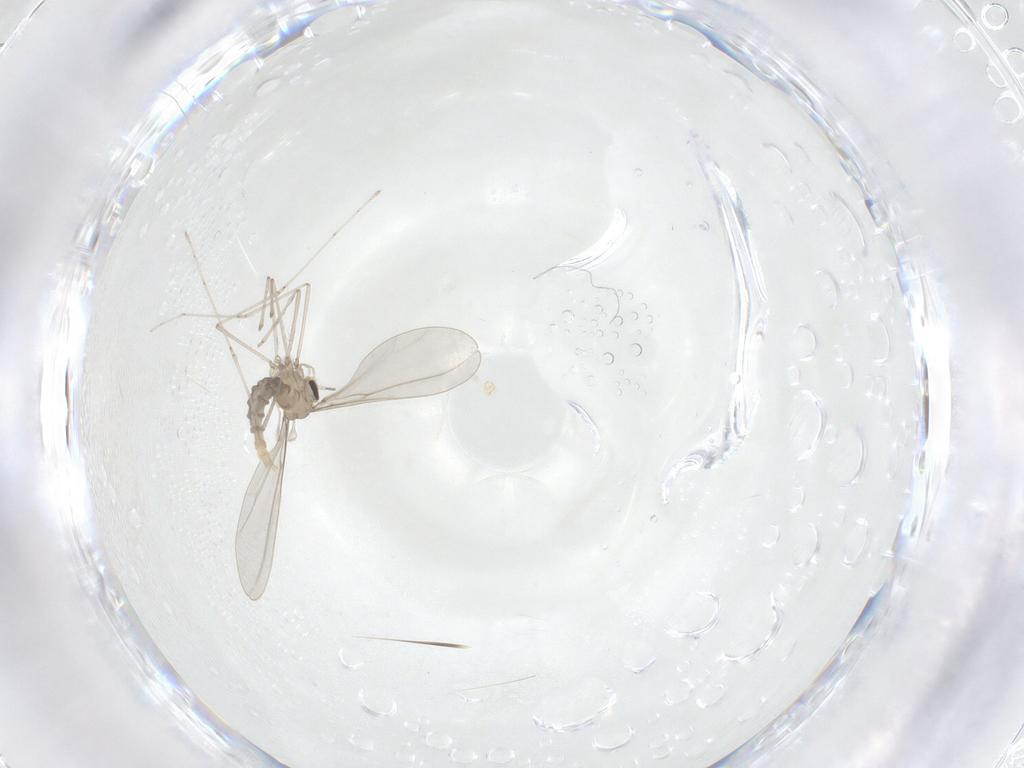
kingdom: Animalia
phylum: Arthropoda
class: Insecta
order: Diptera
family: Cecidomyiidae
